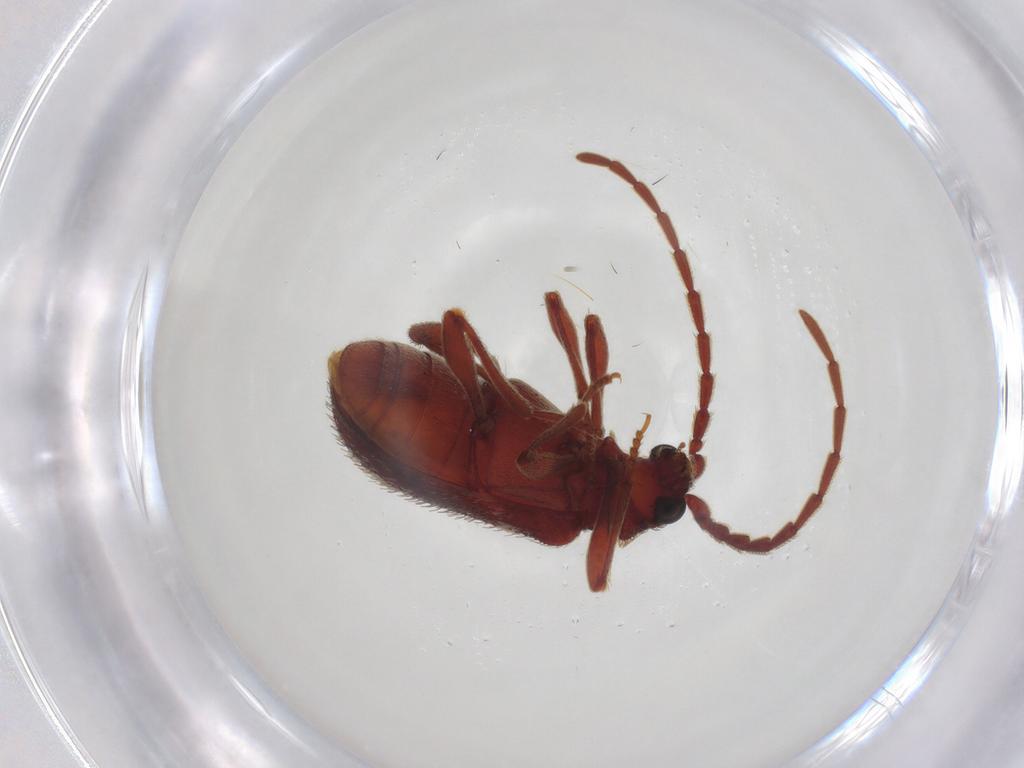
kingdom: Animalia
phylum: Arthropoda
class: Insecta
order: Coleoptera
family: Ptinidae
